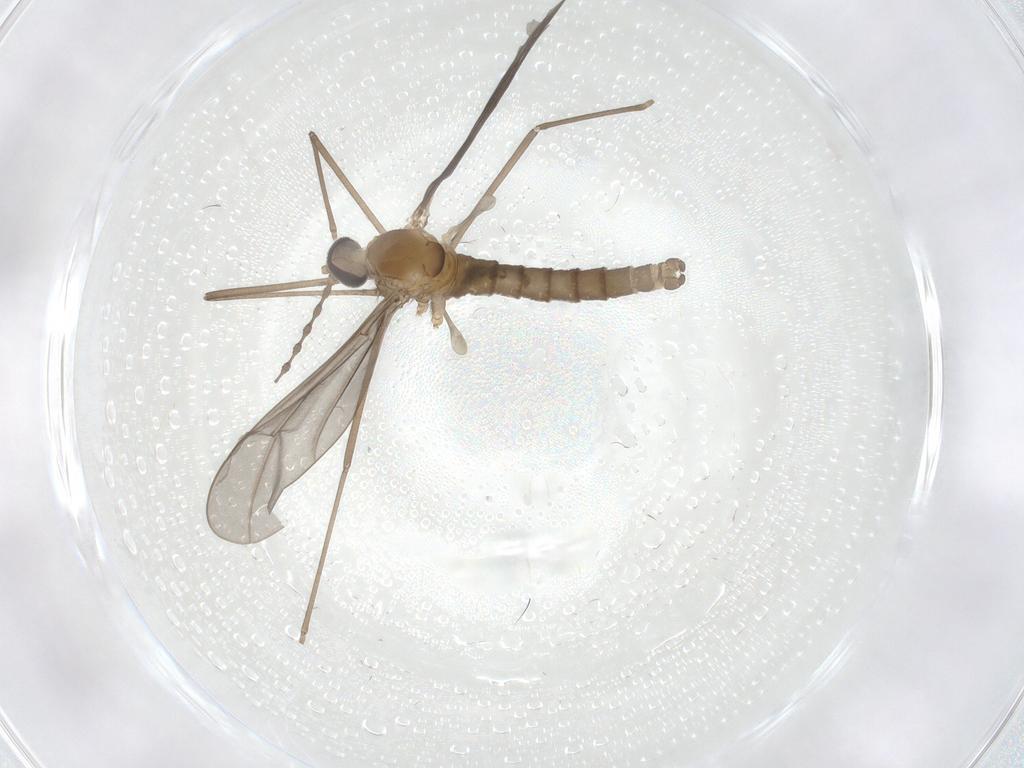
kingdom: Animalia
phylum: Arthropoda
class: Insecta
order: Diptera
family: Cecidomyiidae
